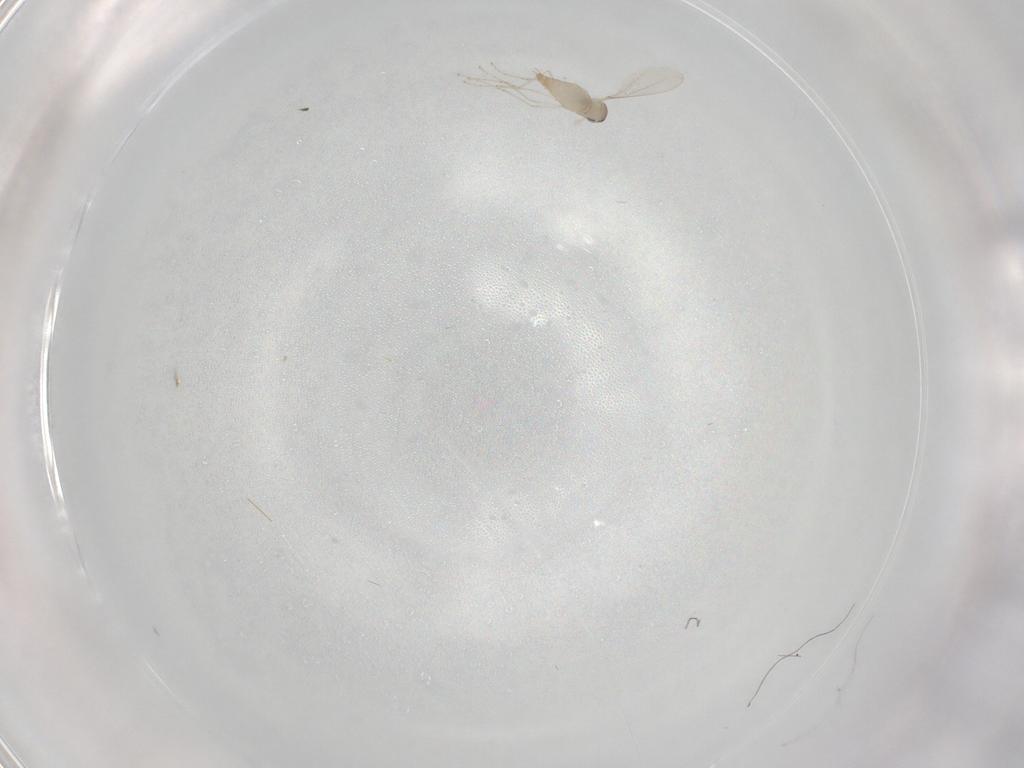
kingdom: Animalia
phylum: Arthropoda
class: Insecta
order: Diptera
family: Cecidomyiidae
